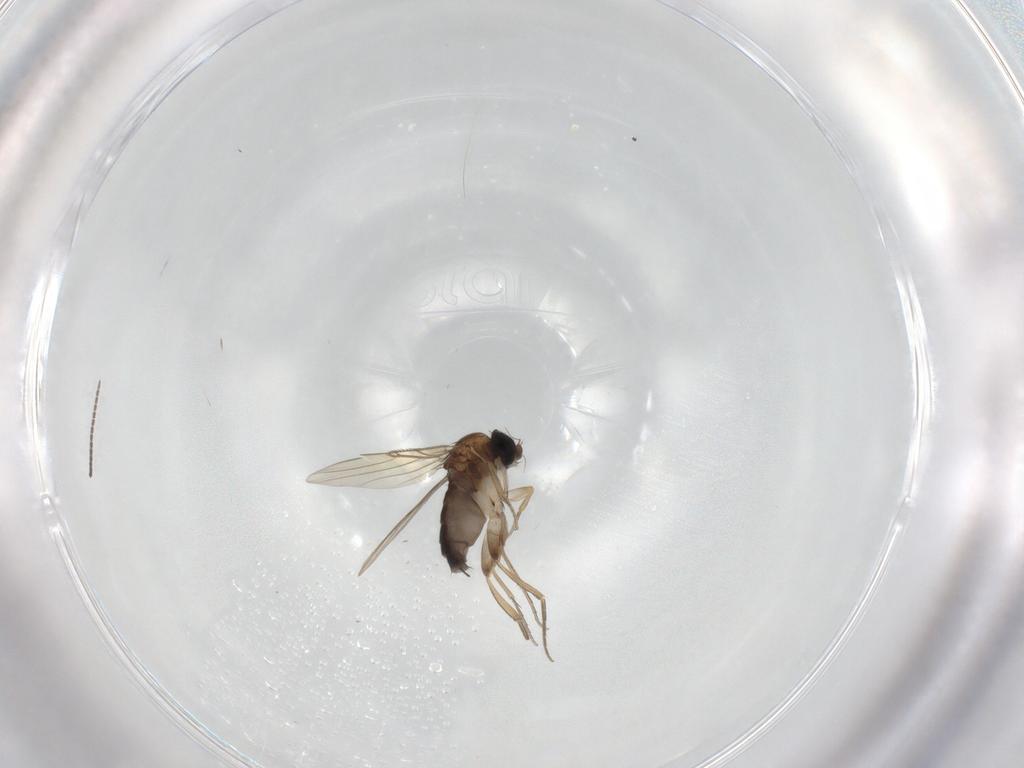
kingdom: Animalia
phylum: Arthropoda
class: Insecta
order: Diptera
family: Phoridae
